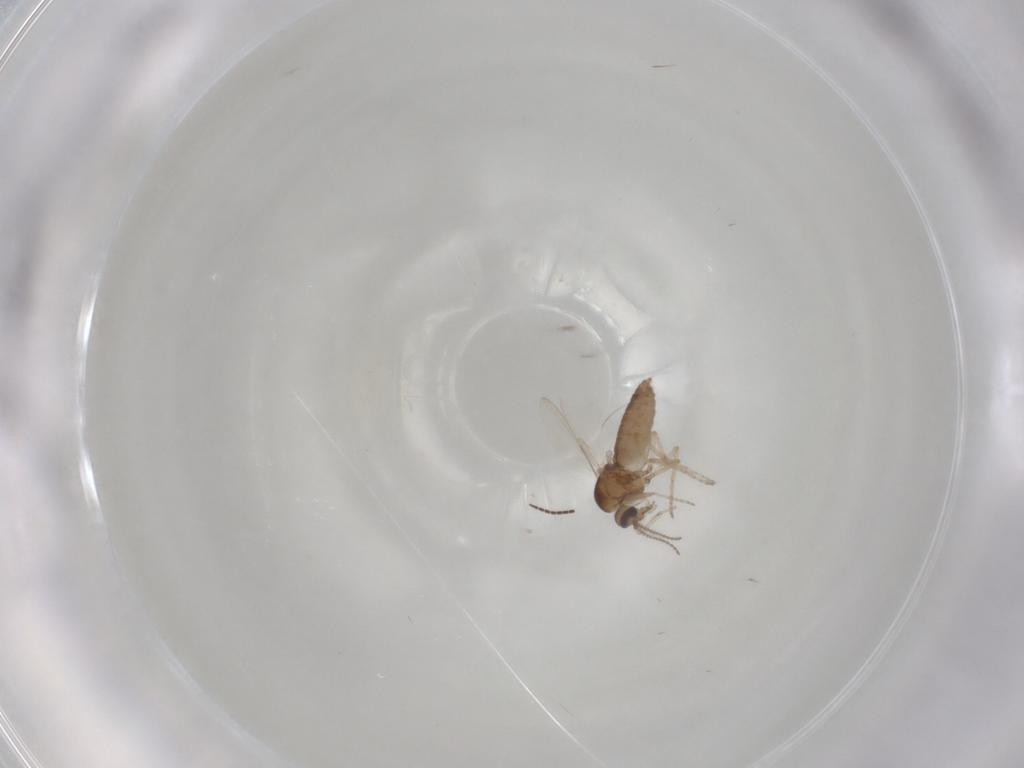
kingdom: Animalia
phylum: Arthropoda
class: Insecta
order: Diptera
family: Ceratopogonidae
